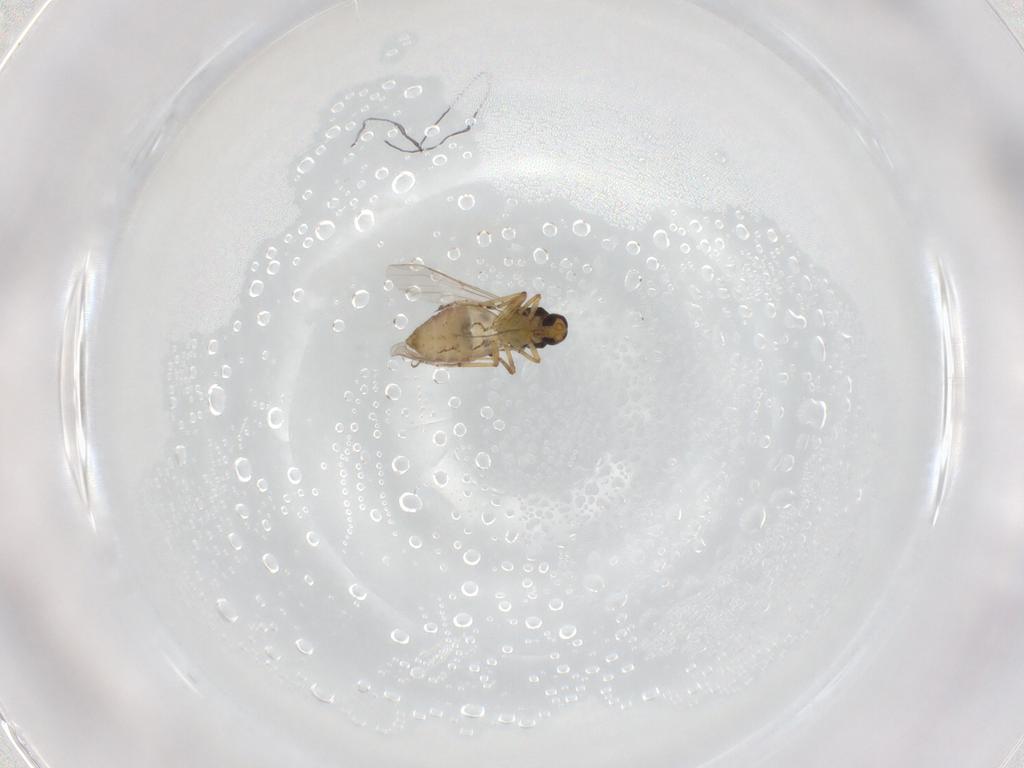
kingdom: Animalia
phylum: Arthropoda
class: Insecta
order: Diptera
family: Ceratopogonidae
